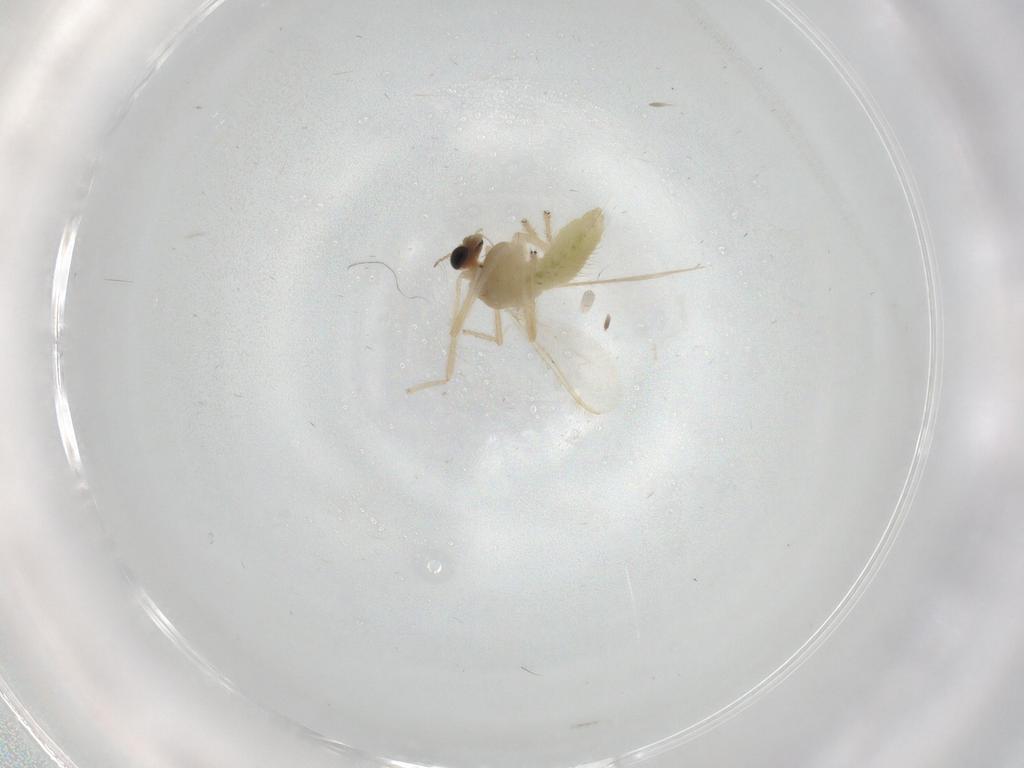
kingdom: Animalia
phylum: Arthropoda
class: Insecta
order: Diptera
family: Chironomidae
